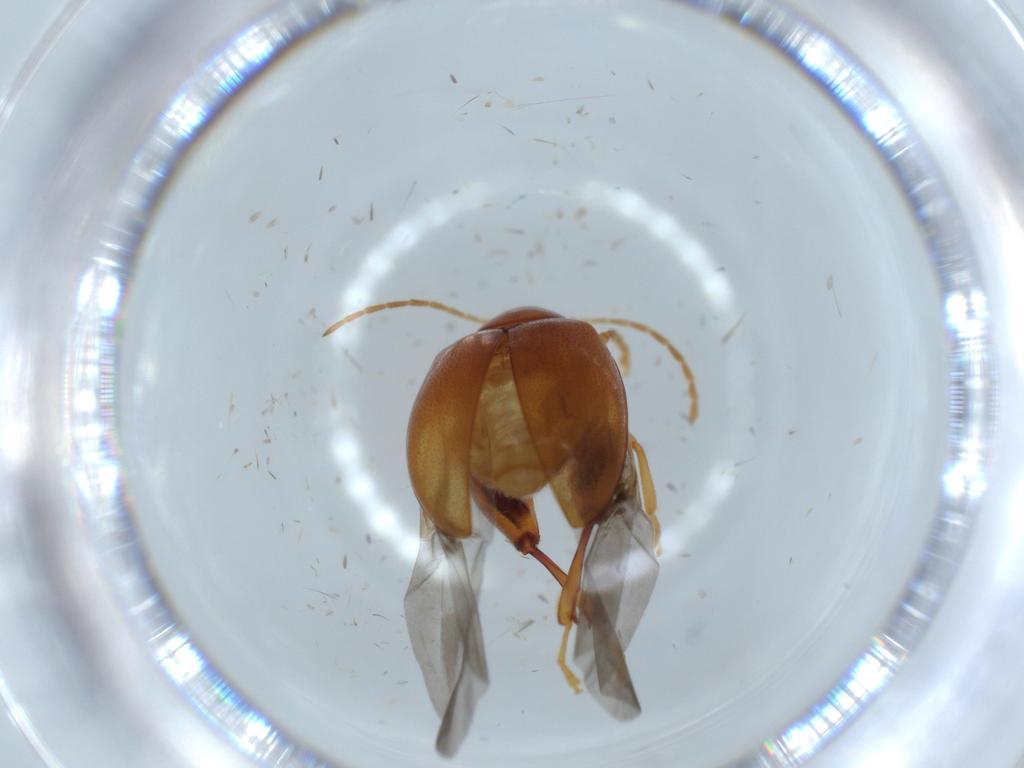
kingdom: Animalia
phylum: Arthropoda
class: Insecta
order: Coleoptera
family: Chrysomelidae
